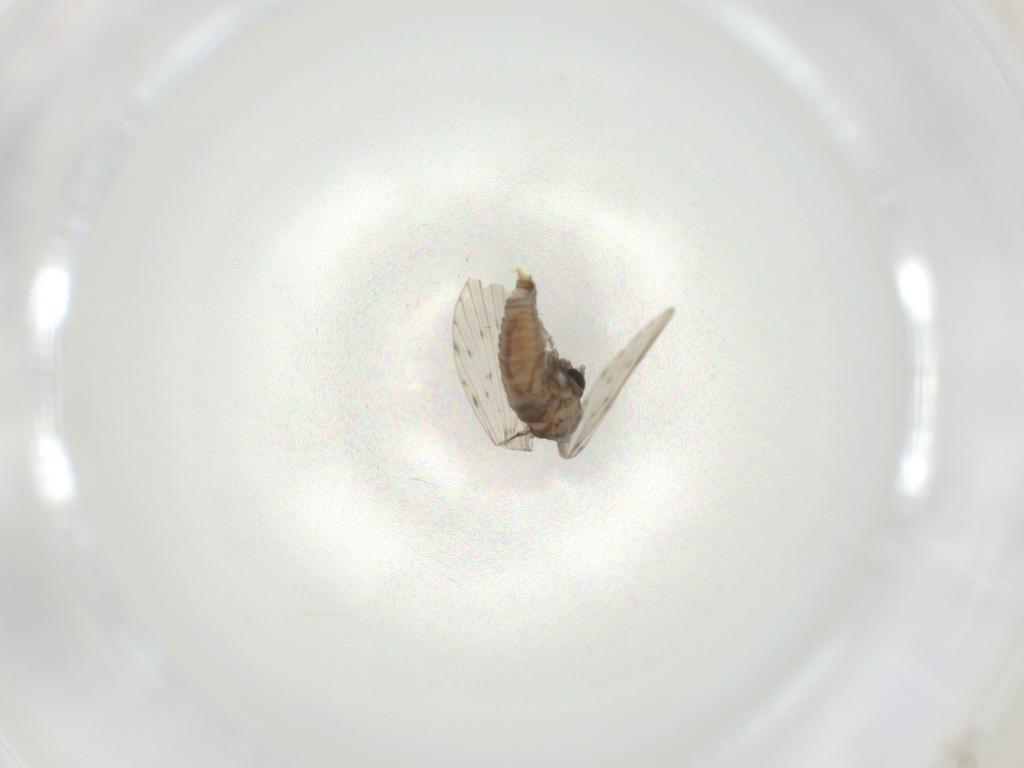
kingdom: Animalia
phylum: Arthropoda
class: Insecta
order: Diptera
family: Psychodidae
